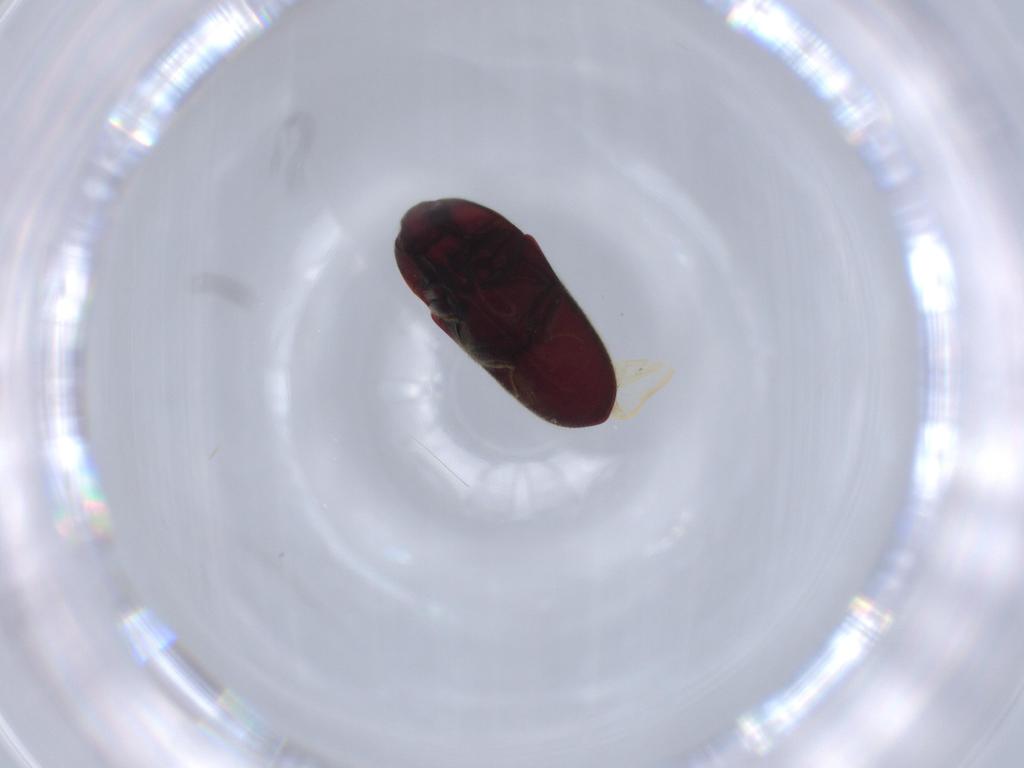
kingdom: Animalia
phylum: Arthropoda
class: Insecta
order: Coleoptera
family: Throscidae
